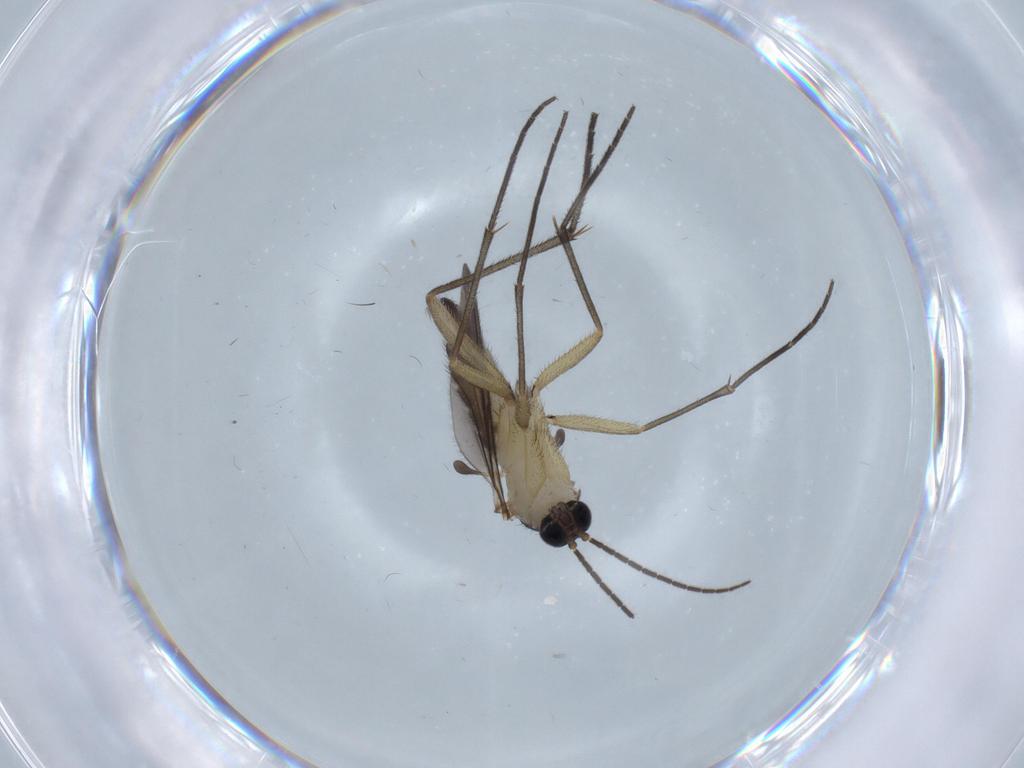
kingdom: Animalia
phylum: Arthropoda
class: Insecta
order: Diptera
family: Sciaridae
